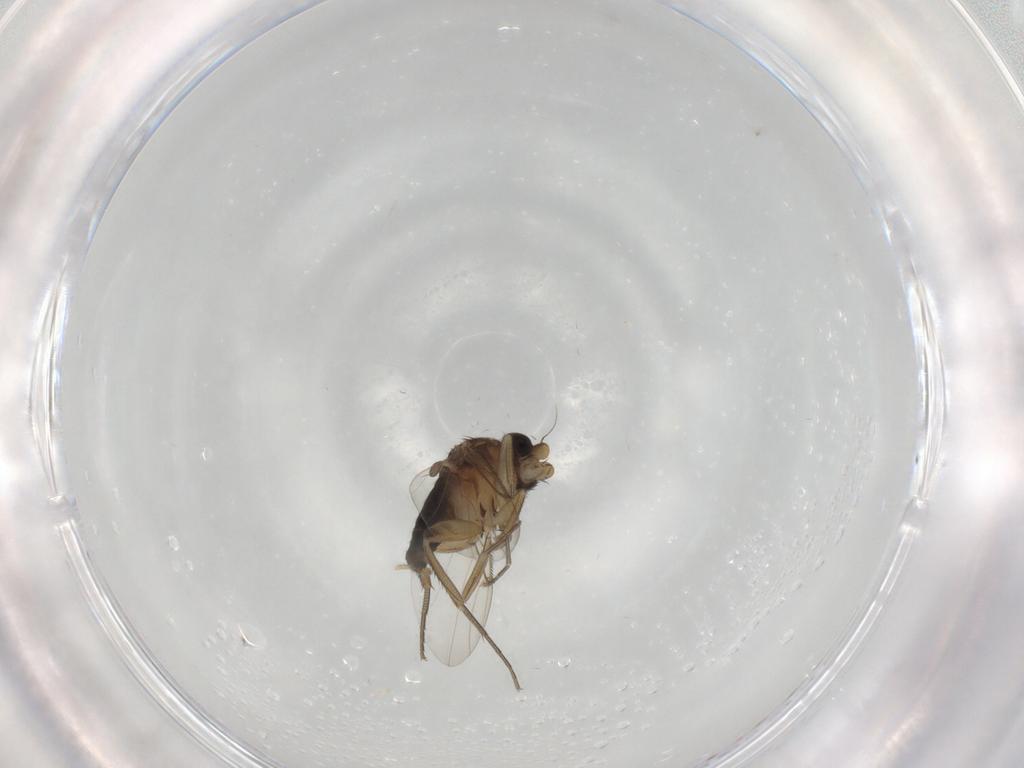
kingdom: Animalia
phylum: Arthropoda
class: Insecta
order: Diptera
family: Phoridae
